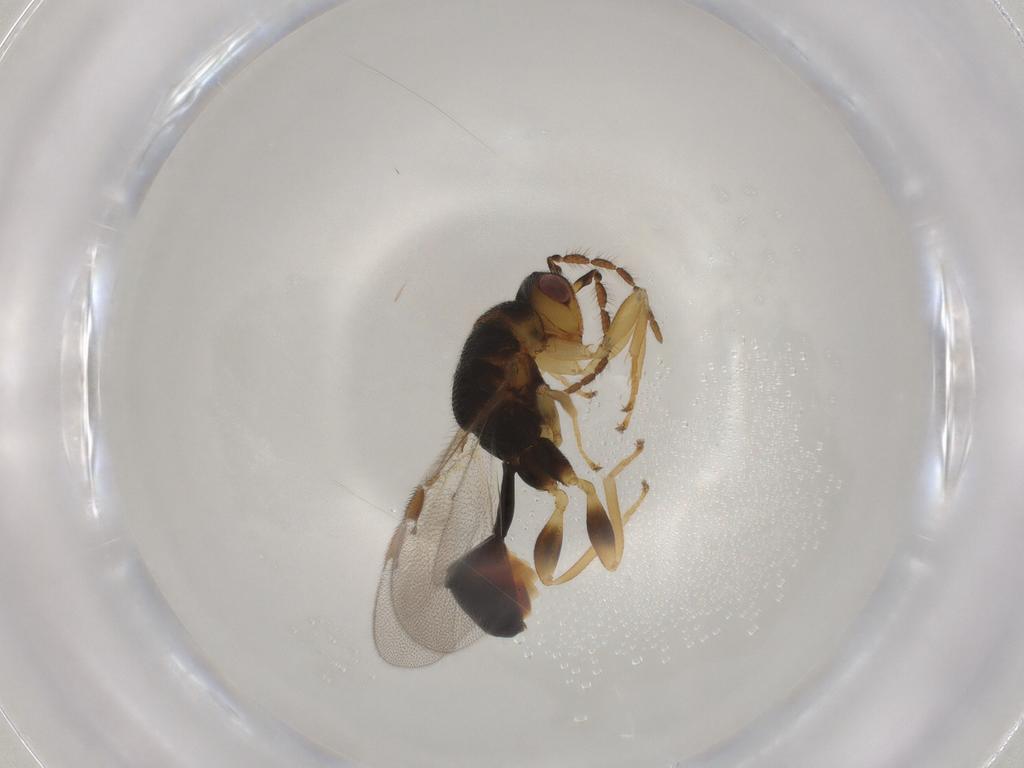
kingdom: Animalia
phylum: Arthropoda
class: Insecta
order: Hymenoptera
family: Eurytomidae
